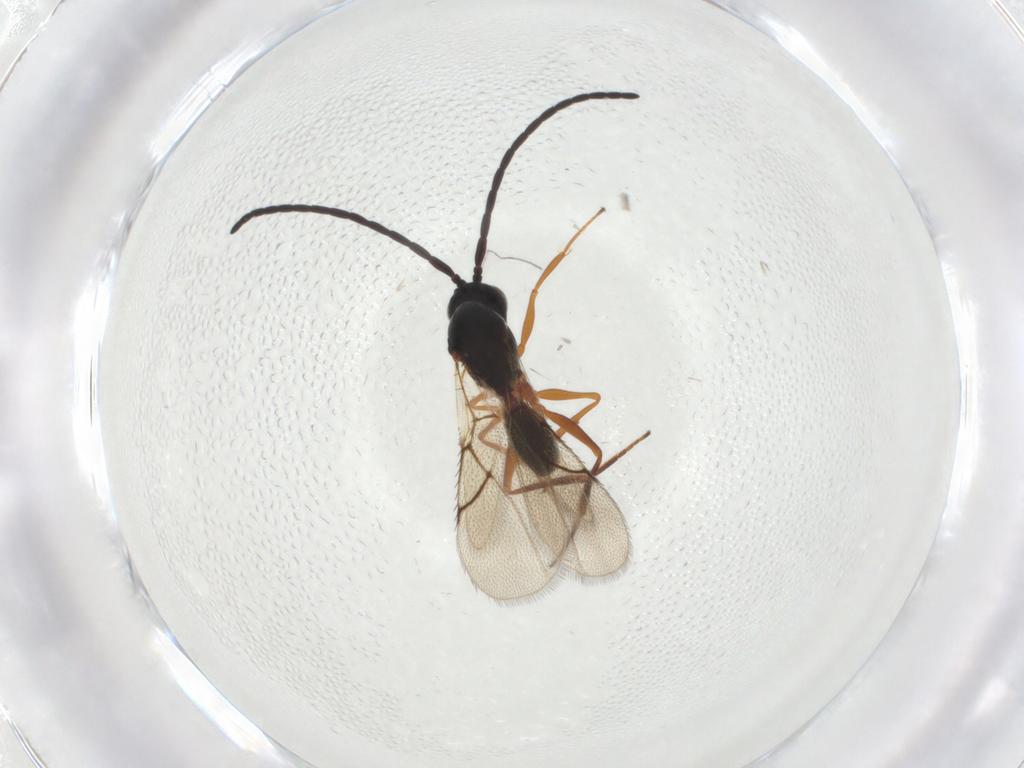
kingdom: Animalia
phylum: Arthropoda
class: Insecta
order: Hymenoptera
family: Figitidae
